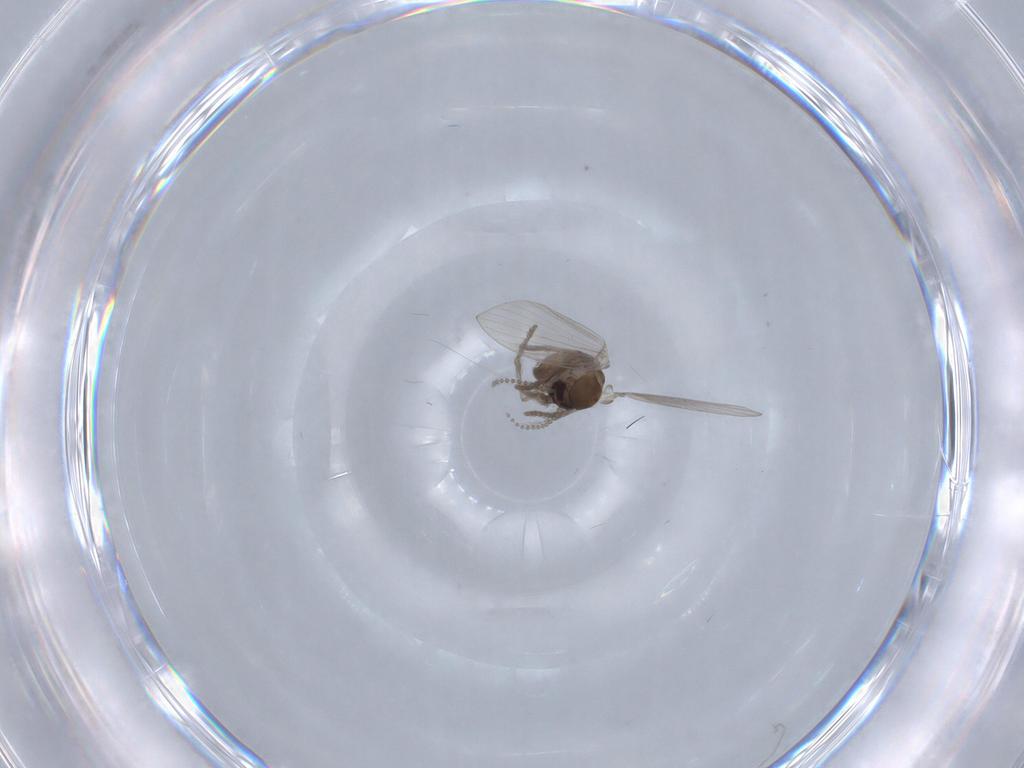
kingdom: Animalia
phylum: Arthropoda
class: Insecta
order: Diptera
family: Psychodidae
